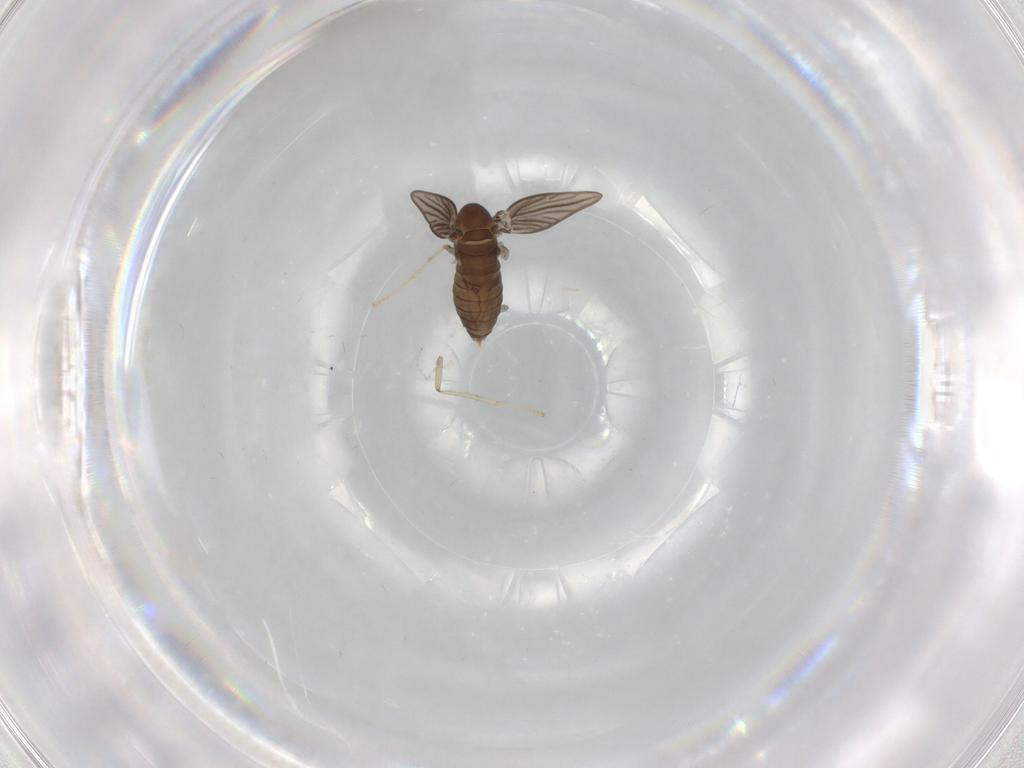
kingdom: Animalia
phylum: Arthropoda
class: Insecta
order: Diptera
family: Psychodidae
